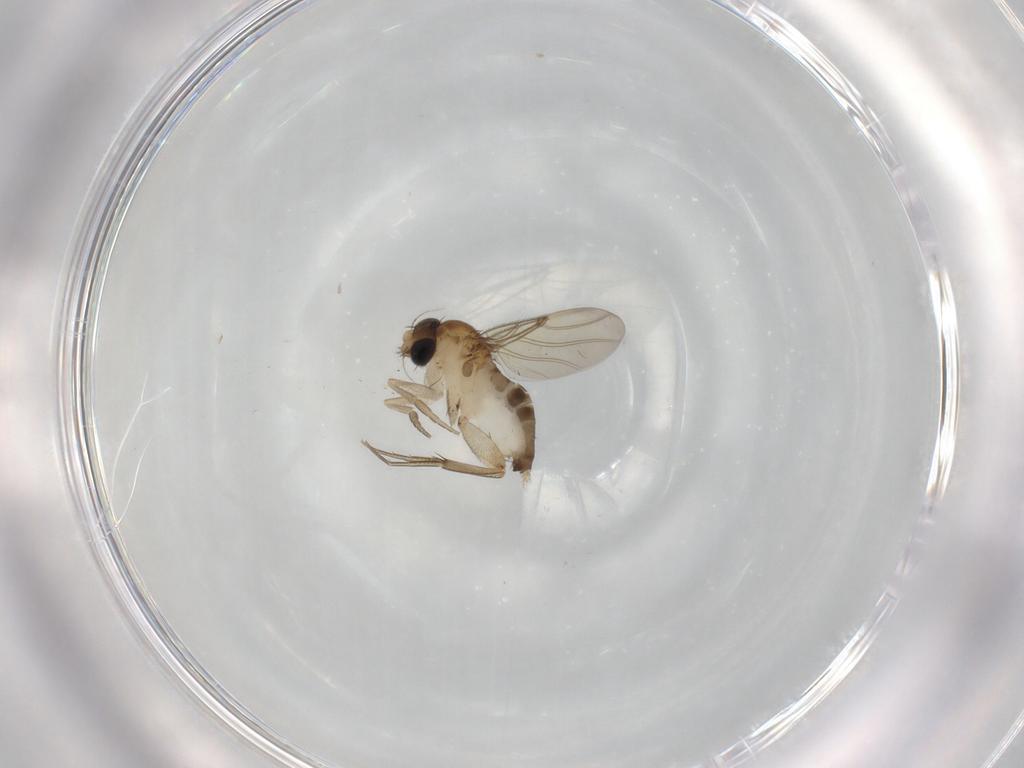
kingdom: Animalia
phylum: Arthropoda
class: Insecta
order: Diptera
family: Phoridae
